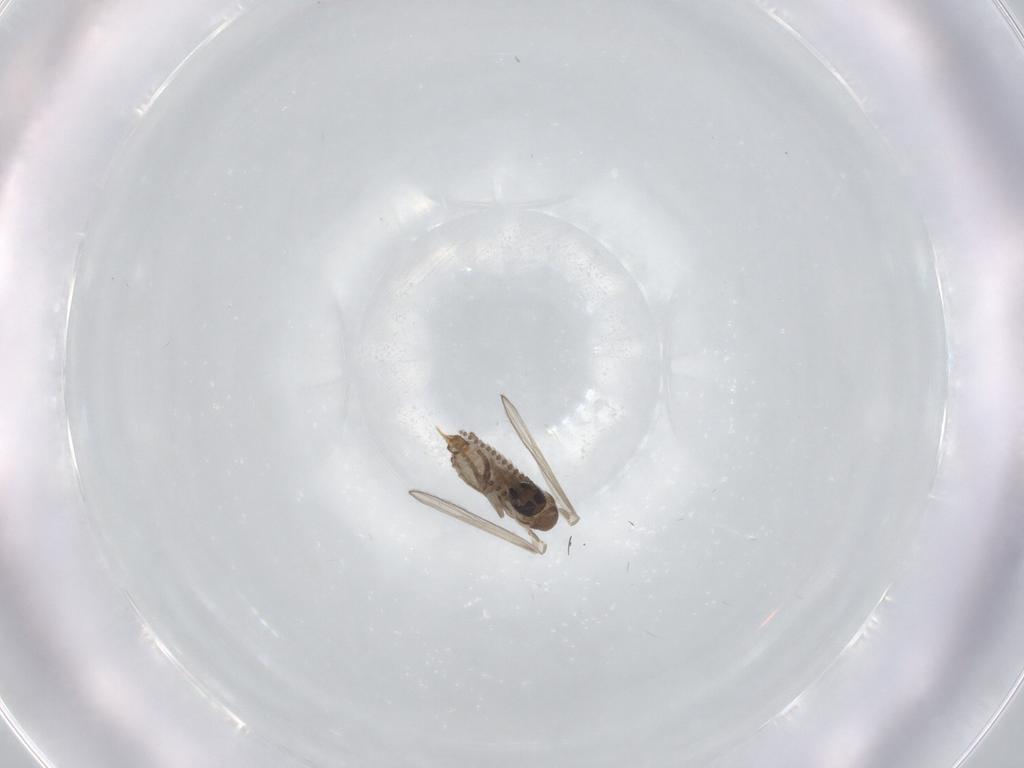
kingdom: Animalia
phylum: Arthropoda
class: Insecta
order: Diptera
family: Psychodidae
